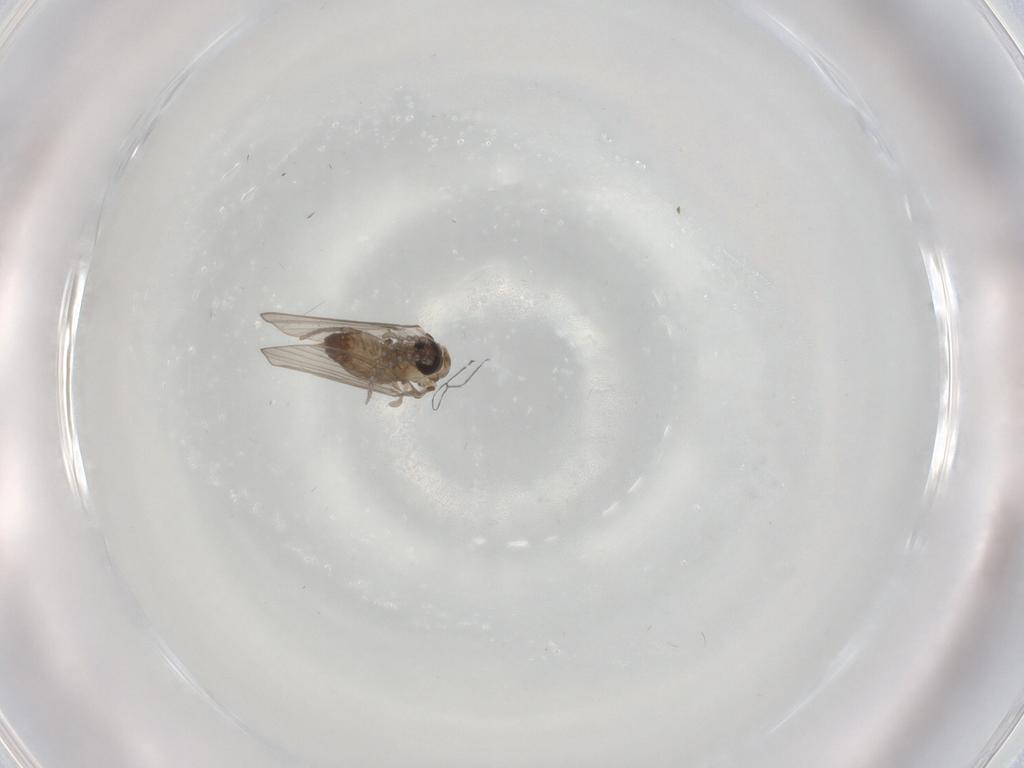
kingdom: Animalia
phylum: Arthropoda
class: Insecta
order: Diptera
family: Psychodidae
